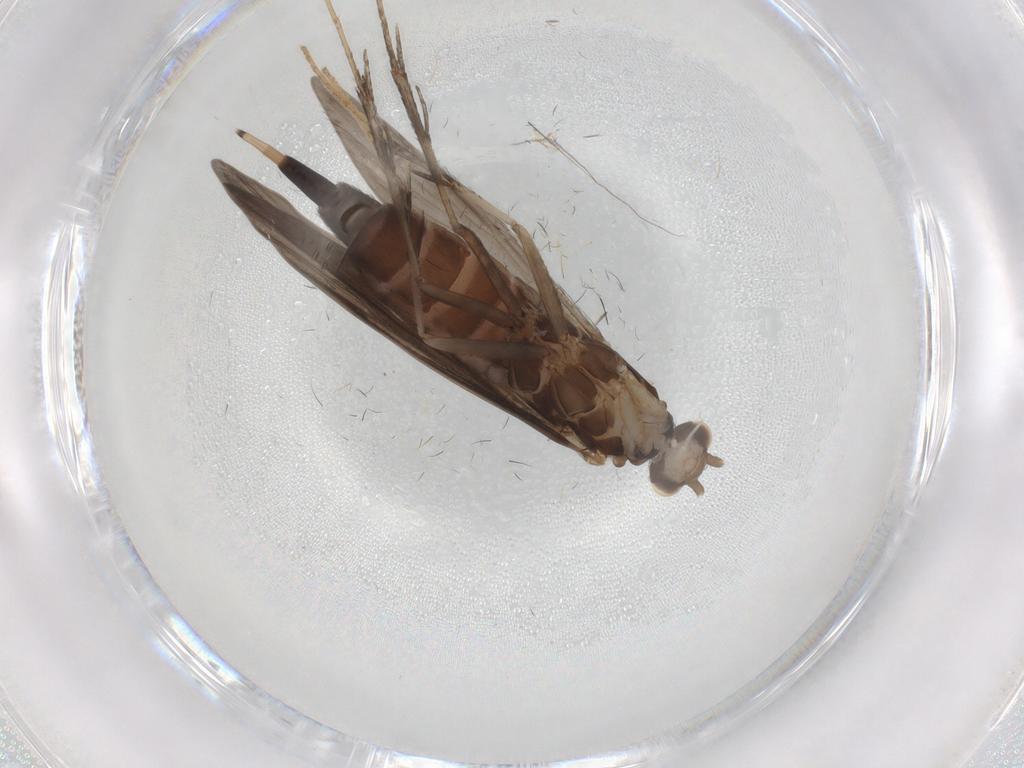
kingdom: Animalia
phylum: Arthropoda
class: Insecta
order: Trichoptera
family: Xiphocentronidae
